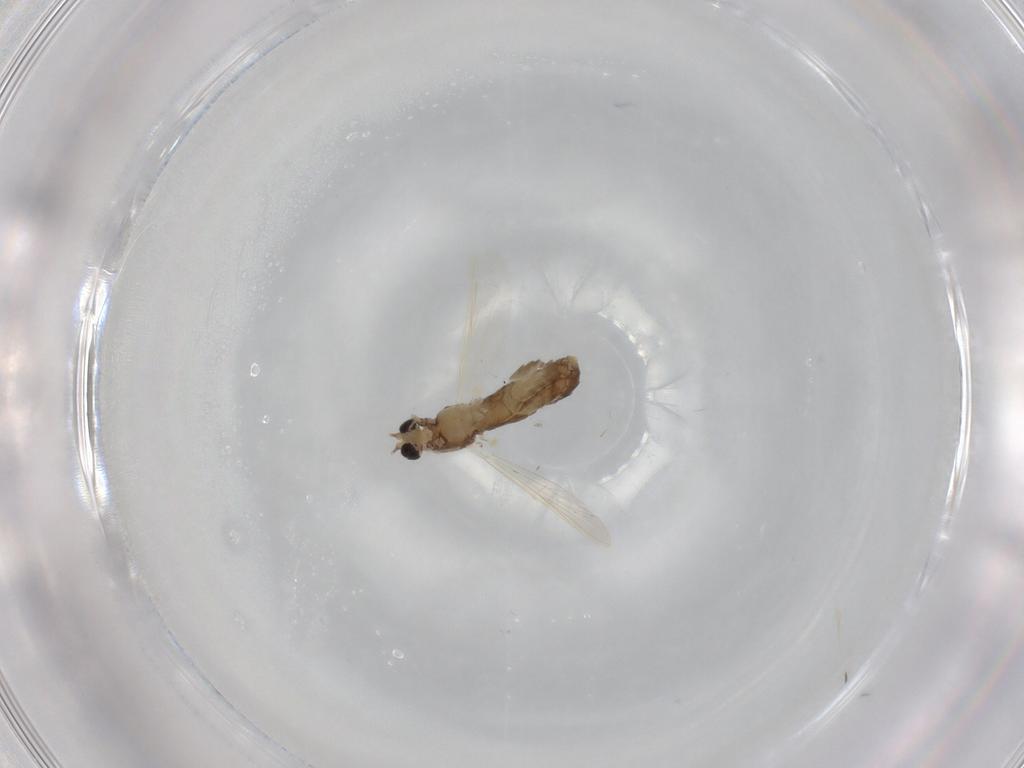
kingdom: Animalia
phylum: Arthropoda
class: Insecta
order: Diptera
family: Chironomidae
